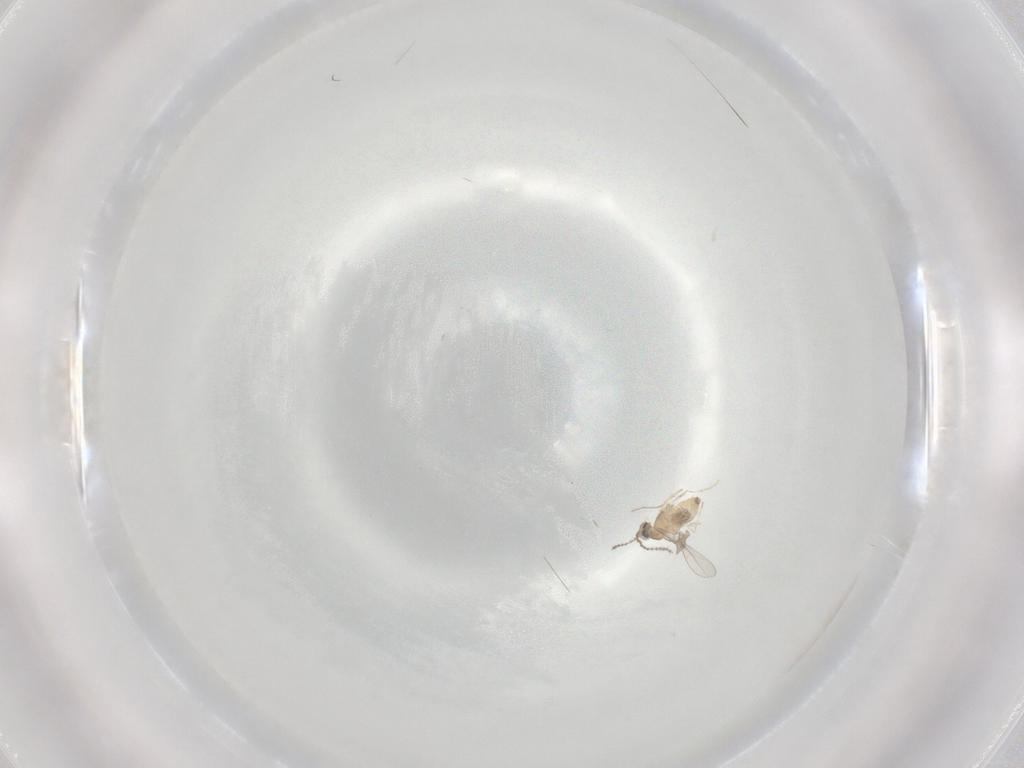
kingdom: Animalia
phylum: Arthropoda
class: Insecta
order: Diptera
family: Cecidomyiidae
